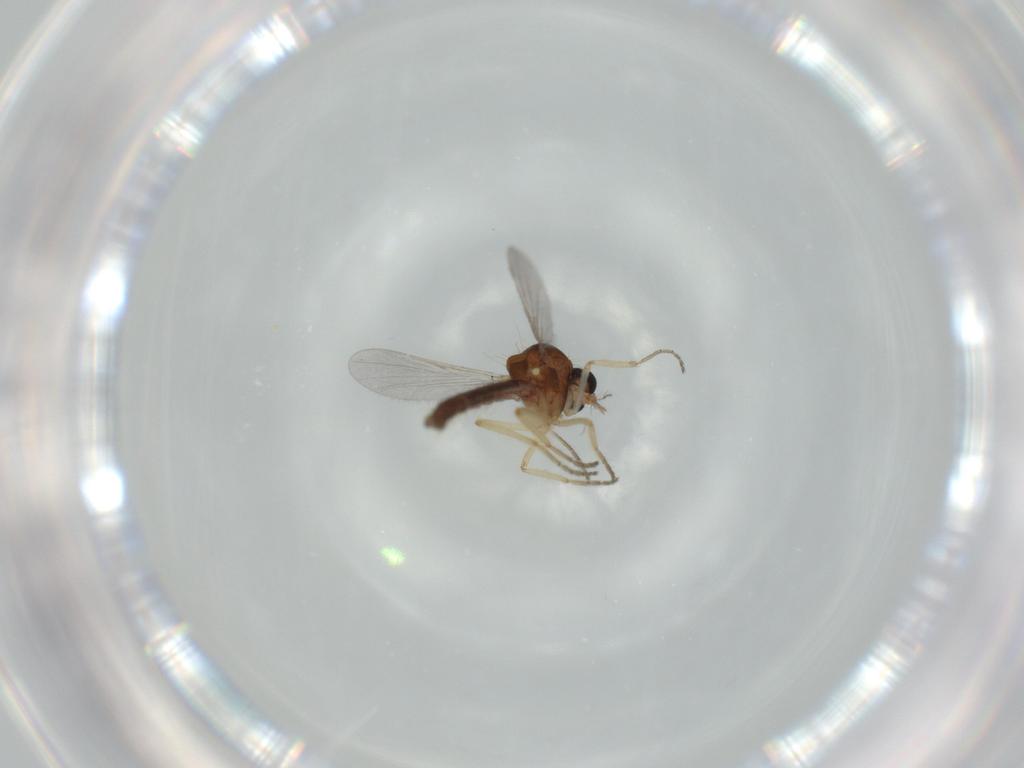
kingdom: Animalia
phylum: Arthropoda
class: Insecta
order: Diptera
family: Ceratopogonidae
